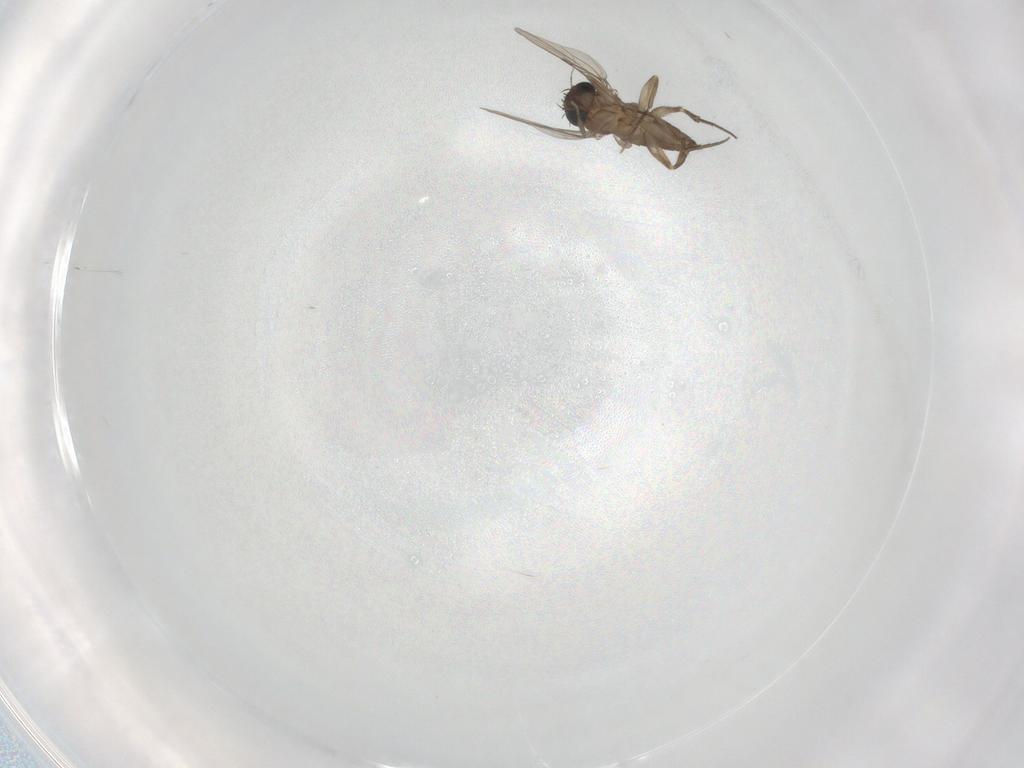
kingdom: Animalia
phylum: Arthropoda
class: Insecta
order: Diptera
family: Phoridae
